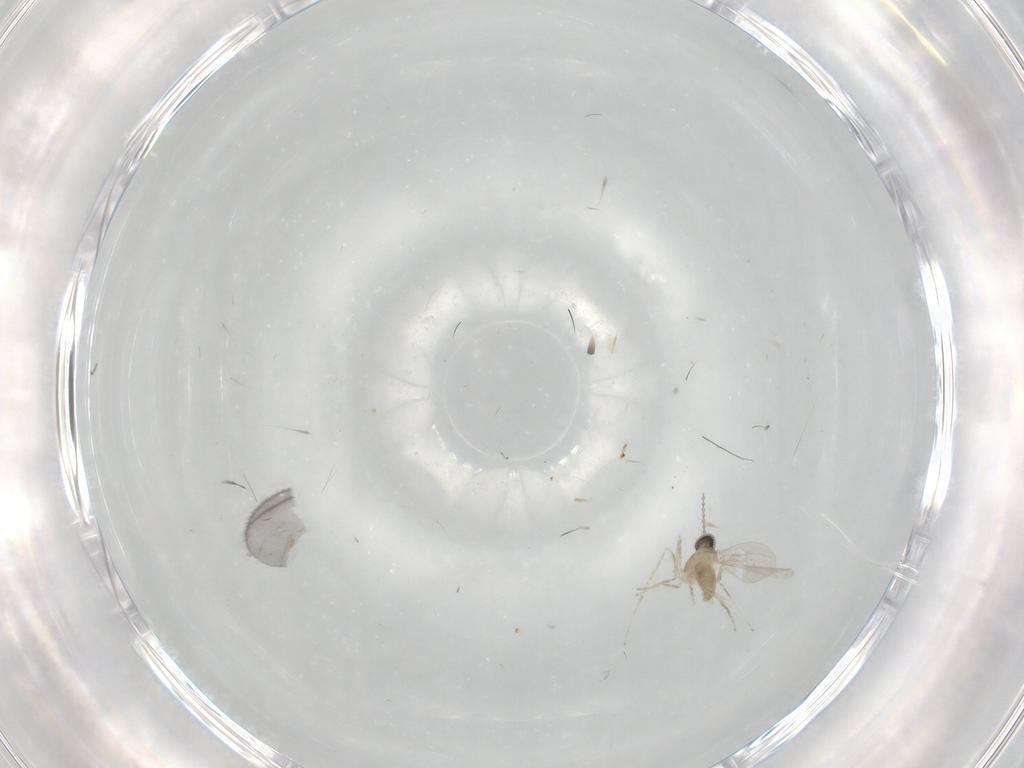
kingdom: Animalia
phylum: Arthropoda
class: Insecta
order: Diptera
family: Cecidomyiidae
